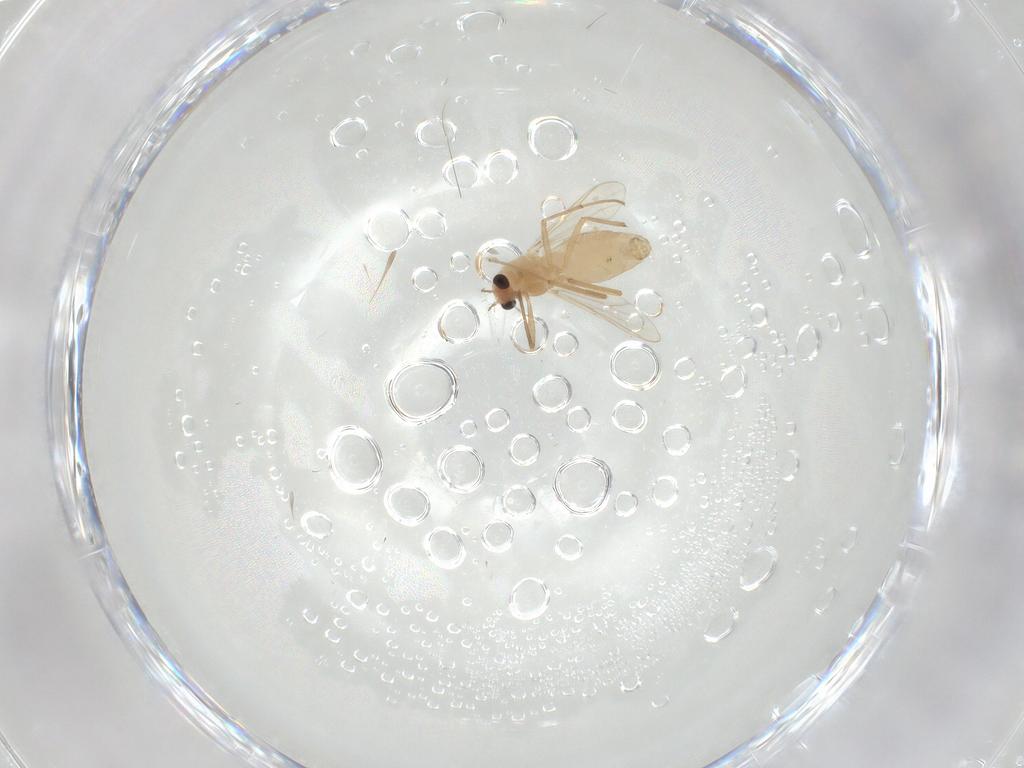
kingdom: Animalia
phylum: Arthropoda
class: Insecta
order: Diptera
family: Chironomidae
